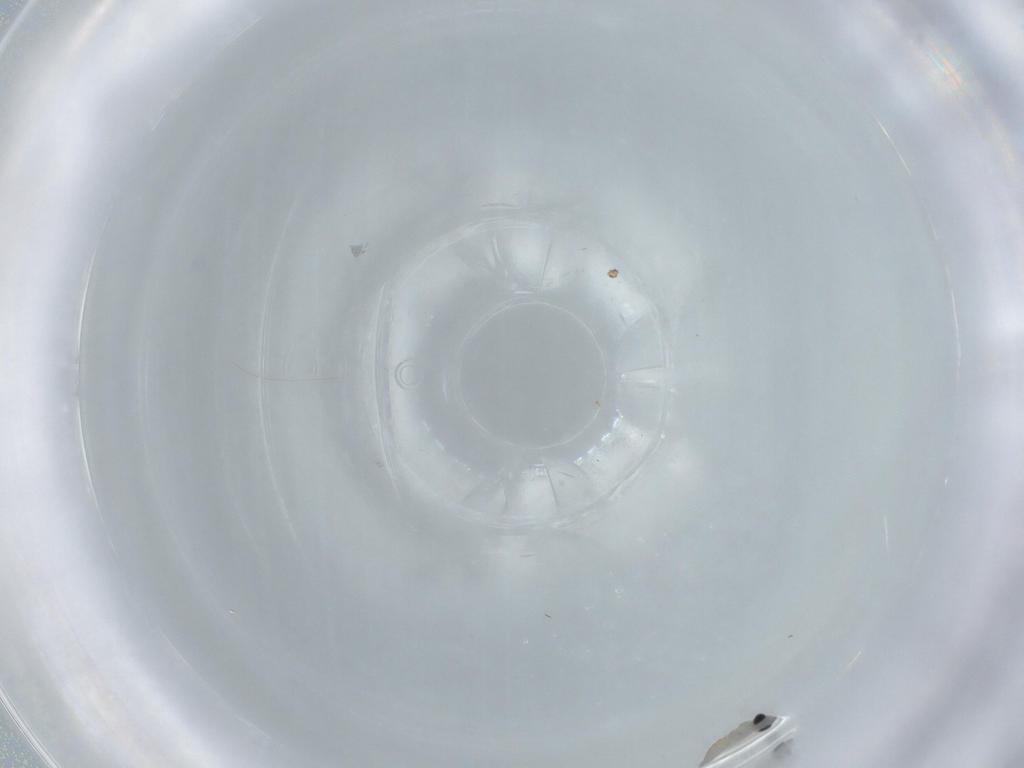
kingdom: Animalia
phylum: Arthropoda
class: Insecta
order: Diptera
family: Cecidomyiidae
